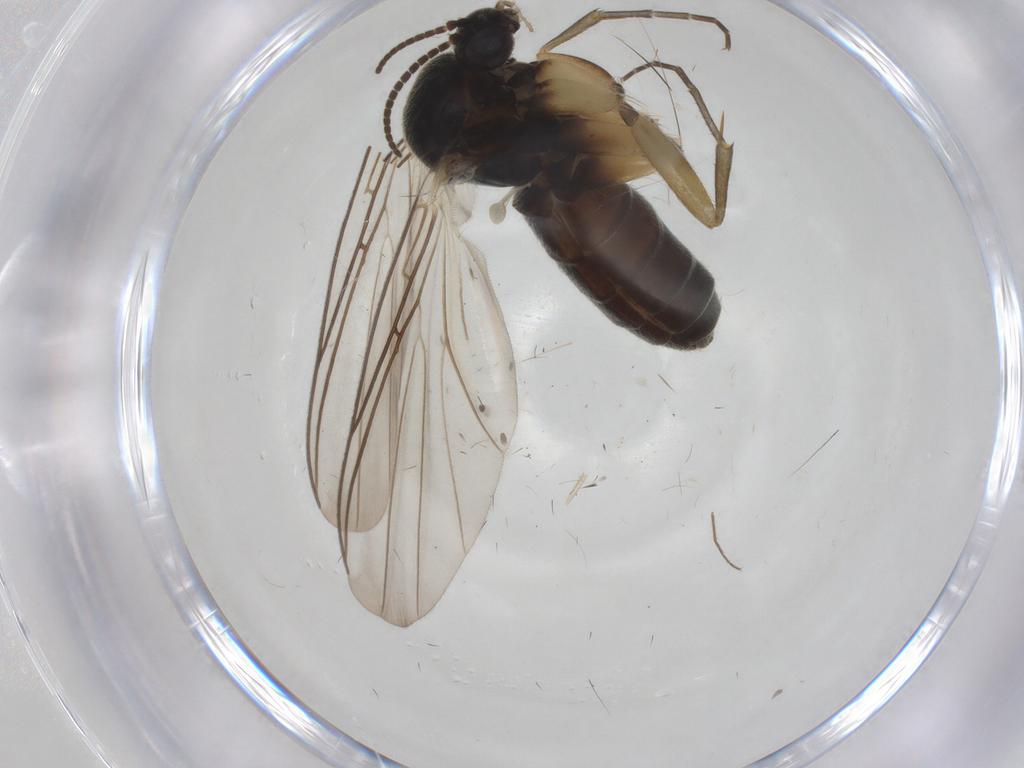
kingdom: Animalia
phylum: Arthropoda
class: Insecta
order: Diptera
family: Mycetophilidae
